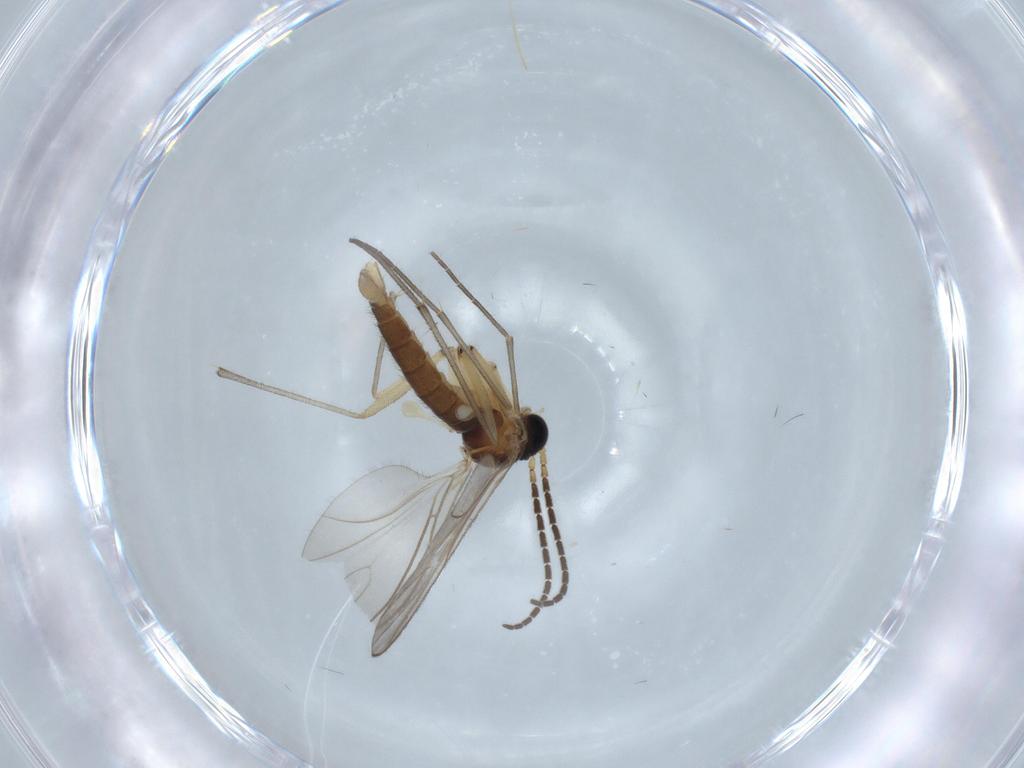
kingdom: Animalia
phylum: Arthropoda
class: Insecta
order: Diptera
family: Sciaridae
